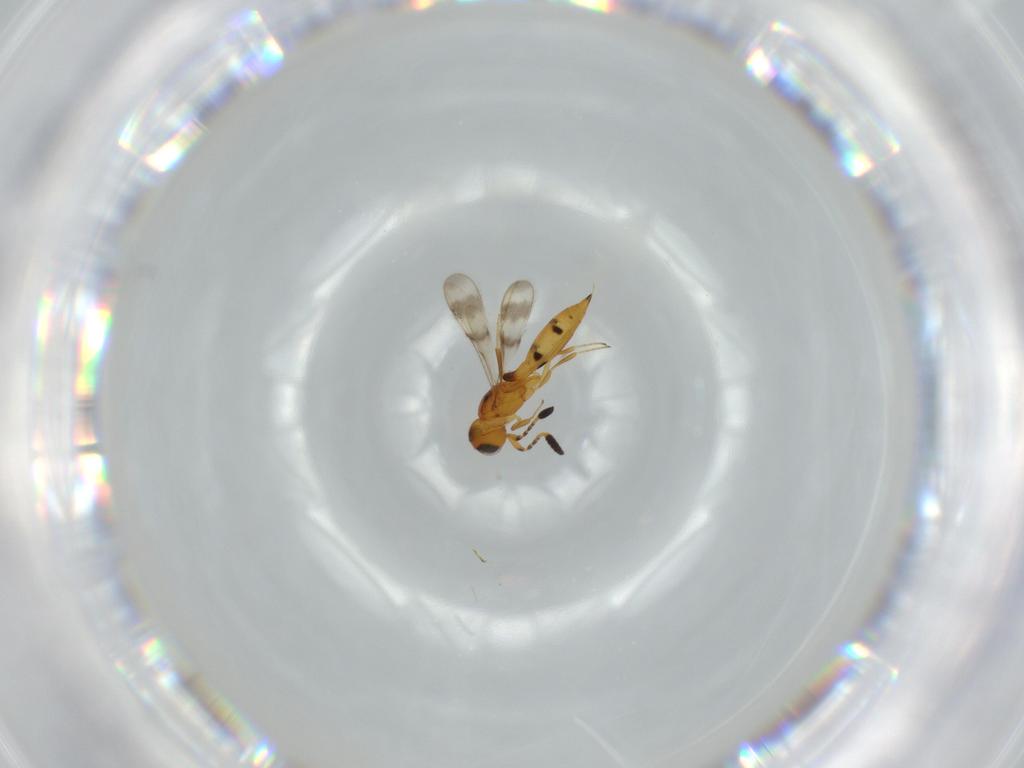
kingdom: Animalia
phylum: Arthropoda
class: Insecta
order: Hymenoptera
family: Scelionidae
